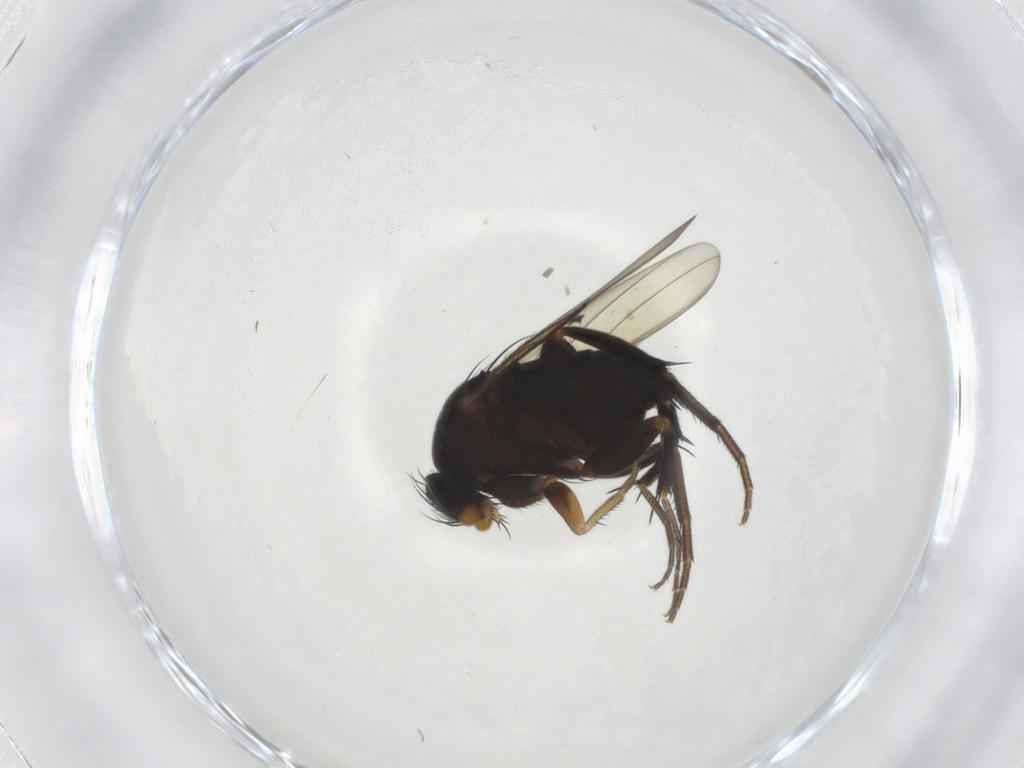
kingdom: Animalia
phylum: Arthropoda
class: Insecta
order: Diptera
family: Phoridae
